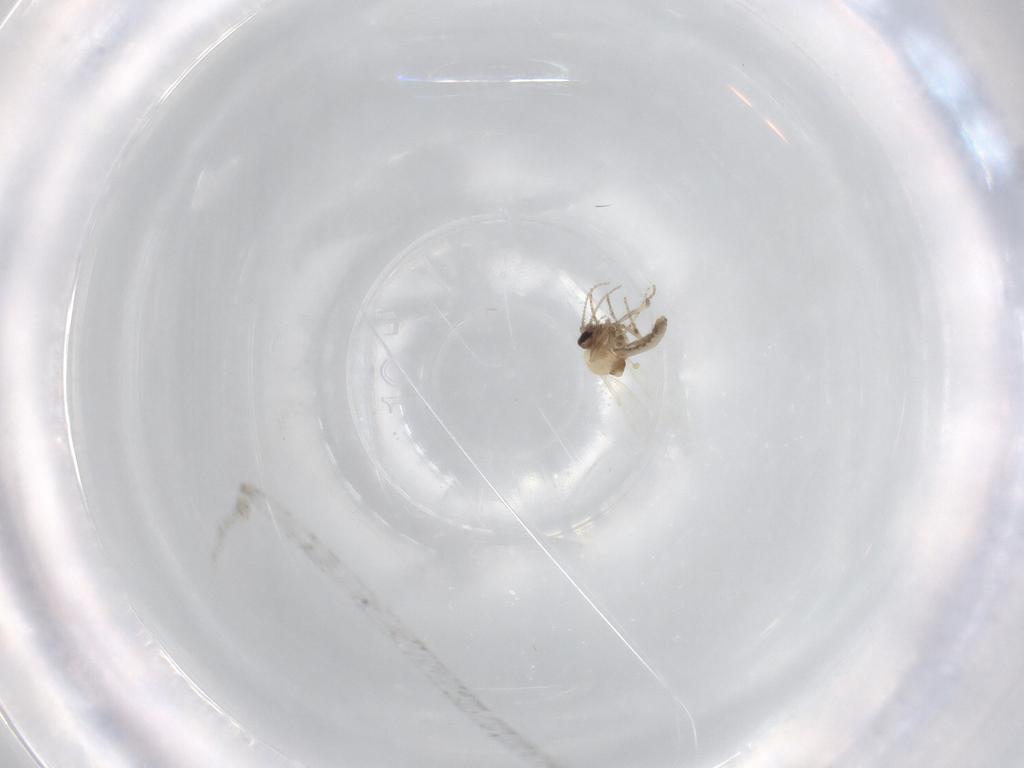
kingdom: Animalia
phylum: Arthropoda
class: Insecta
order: Diptera
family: Ceratopogonidae
